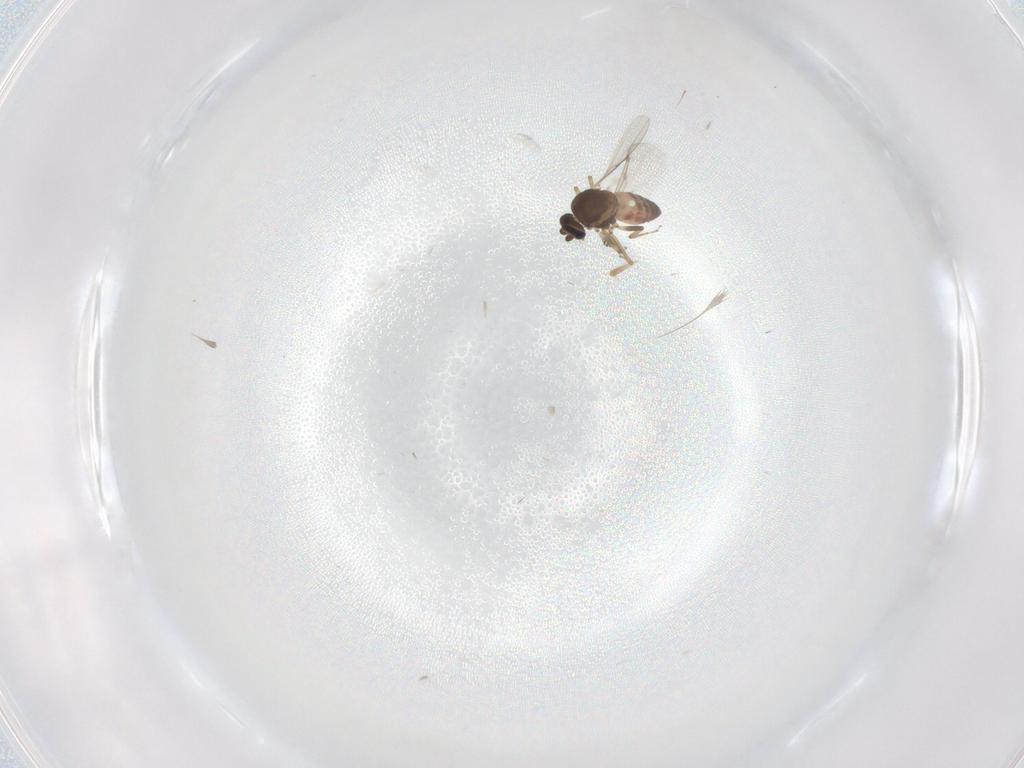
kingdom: Animalia
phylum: Arthropoda
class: Insecta
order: Diptera
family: Ceratopogonidae
